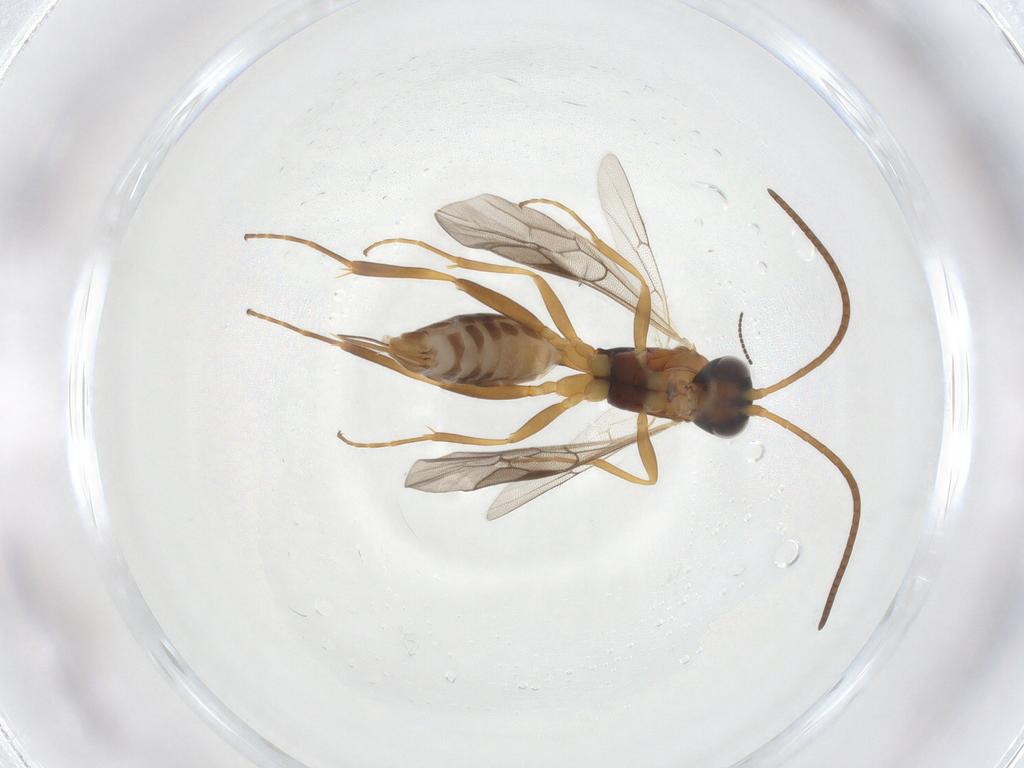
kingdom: Animalia
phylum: Arthropoda
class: Insecta
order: Hymenoptera
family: Ichneumonidae
